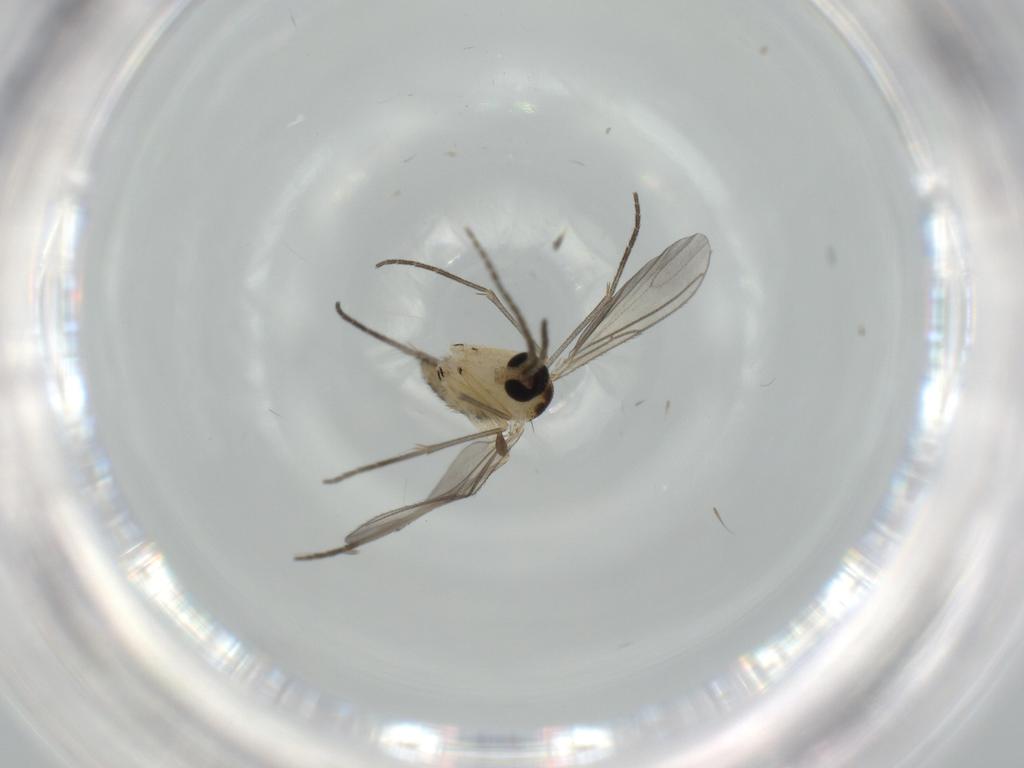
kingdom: Animalia
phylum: Arthropoda
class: Insecta
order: Diptera
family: Sciaridae
